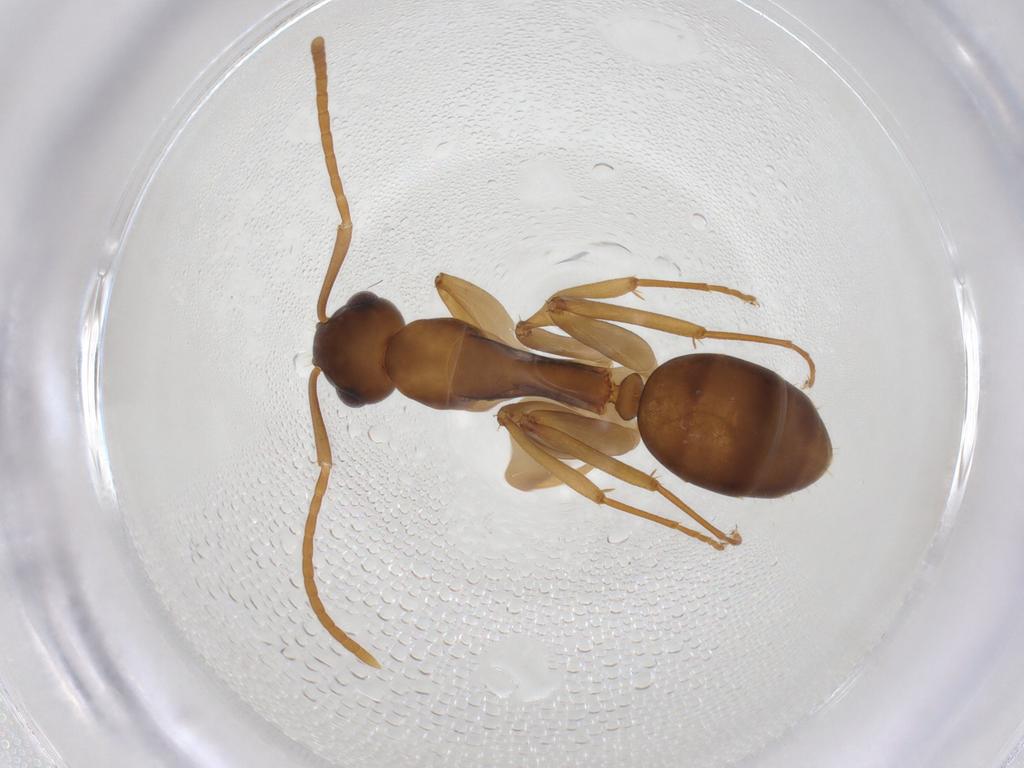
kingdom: Animalia
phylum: Arthropoda
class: Insecta
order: Hymenoptera
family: Formicidae
